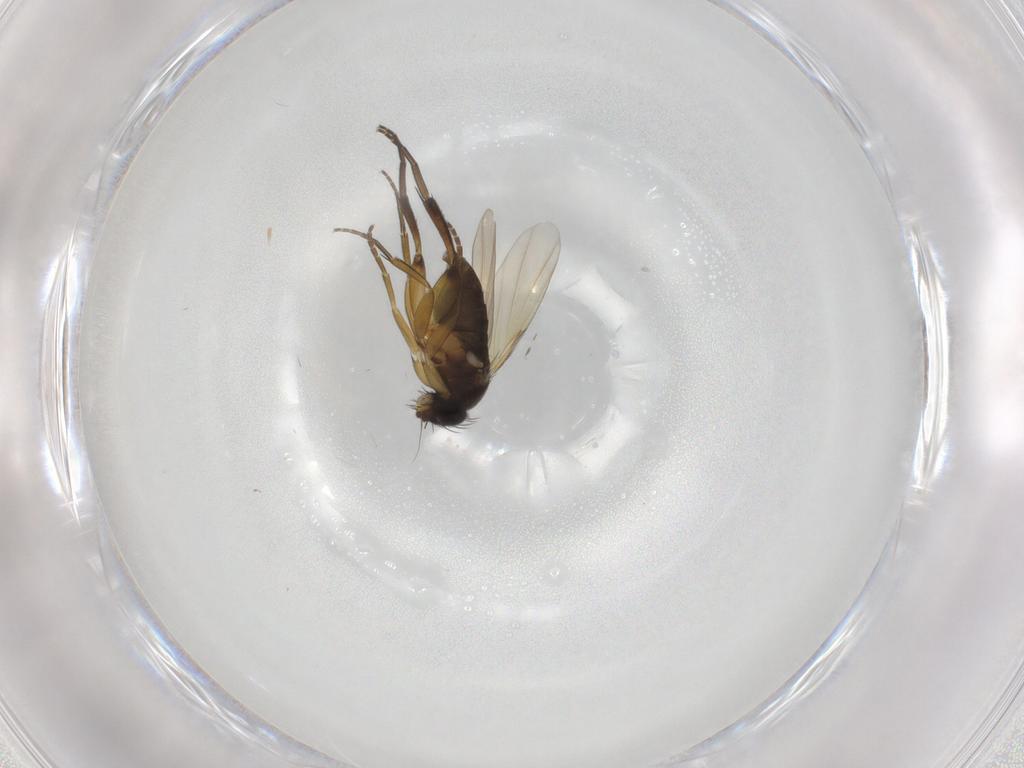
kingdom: Animalia
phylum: Arthropoda
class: Insecta
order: Diptera
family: Phoridae
